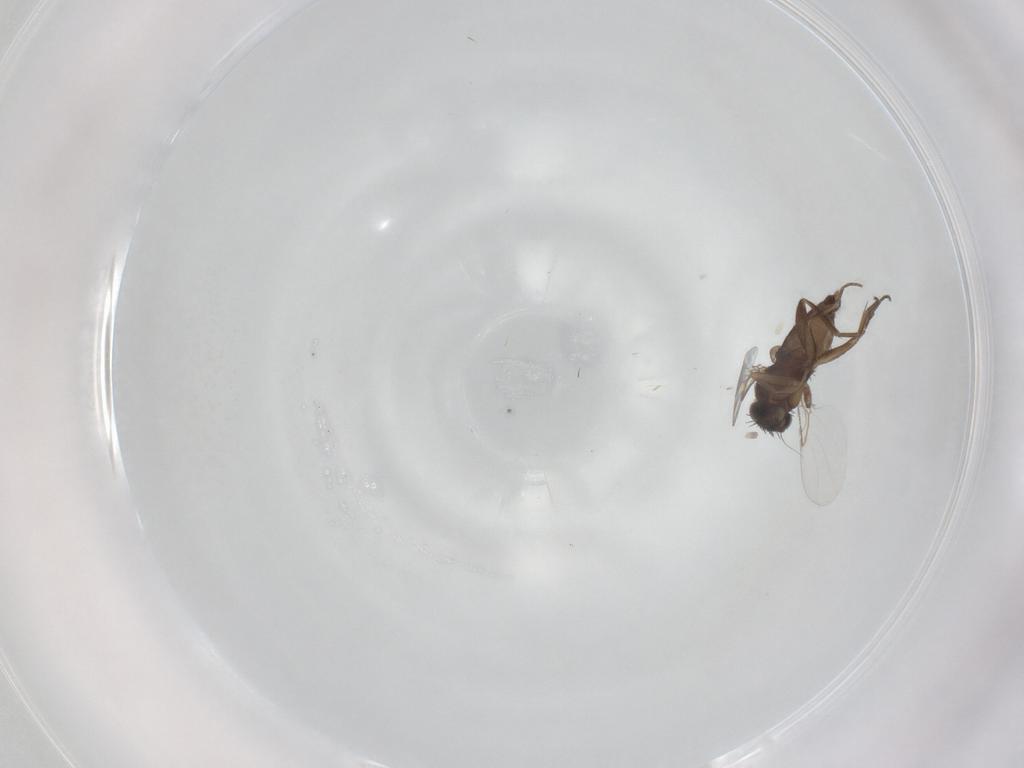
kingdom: Animalia
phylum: Arthropoda
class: Insecta
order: Diptera
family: Phoridae
